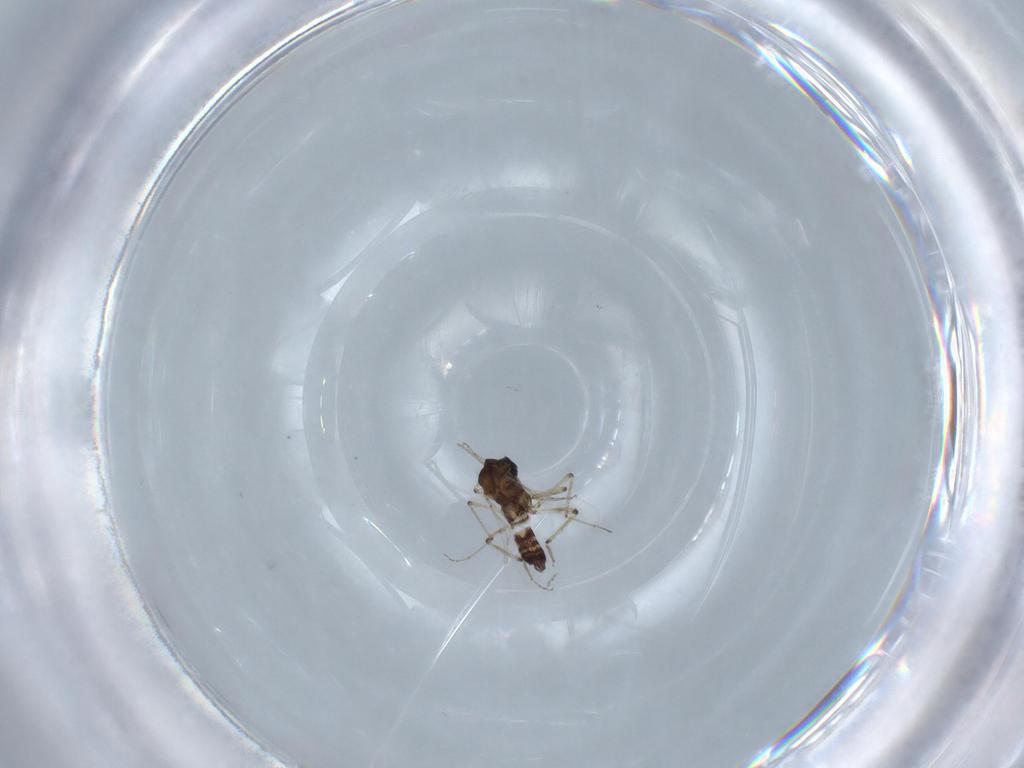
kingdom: Animalia
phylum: Arthropoda
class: Insecta
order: Diptera
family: Ceratopogonidae
